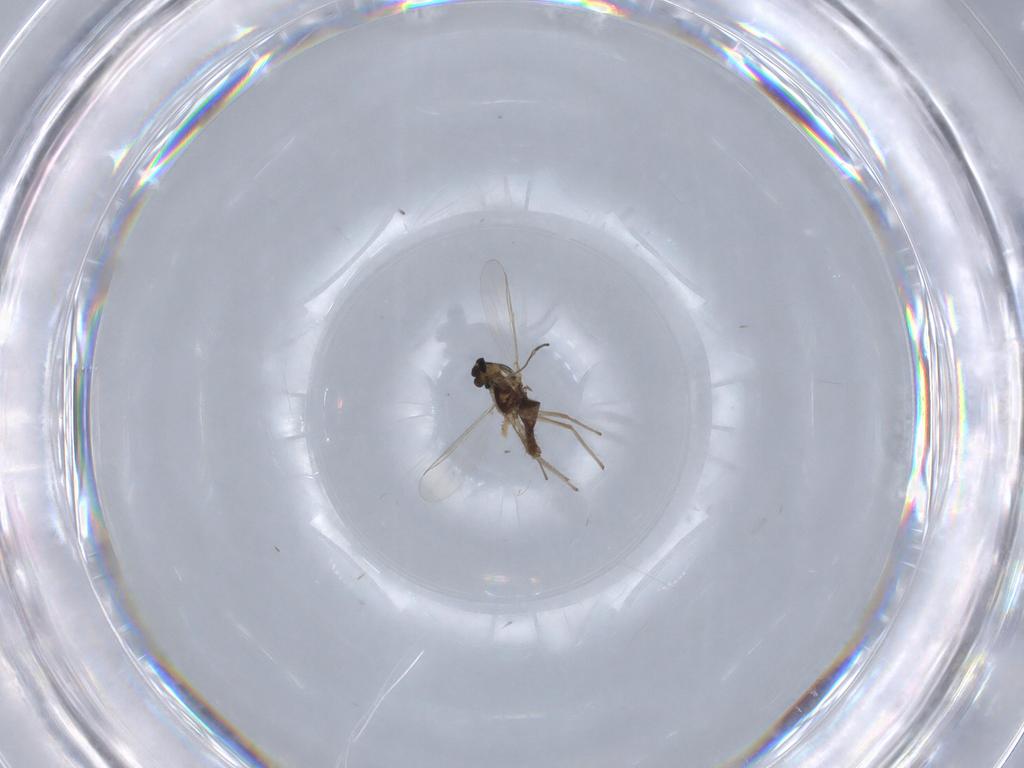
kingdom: Animalia
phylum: Arthropoda
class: Insecta
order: Diptera
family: Chironomidae
